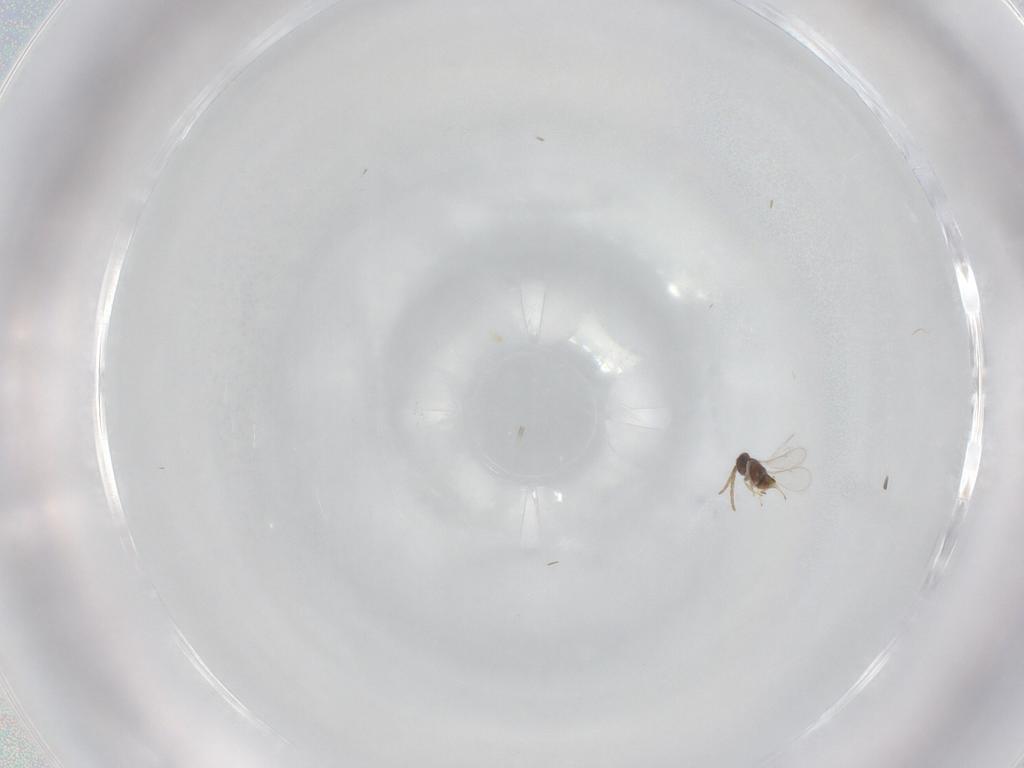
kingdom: Animalia
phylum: Arthropoda
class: Insecta
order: Hymenoptera
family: Aphelinidae
